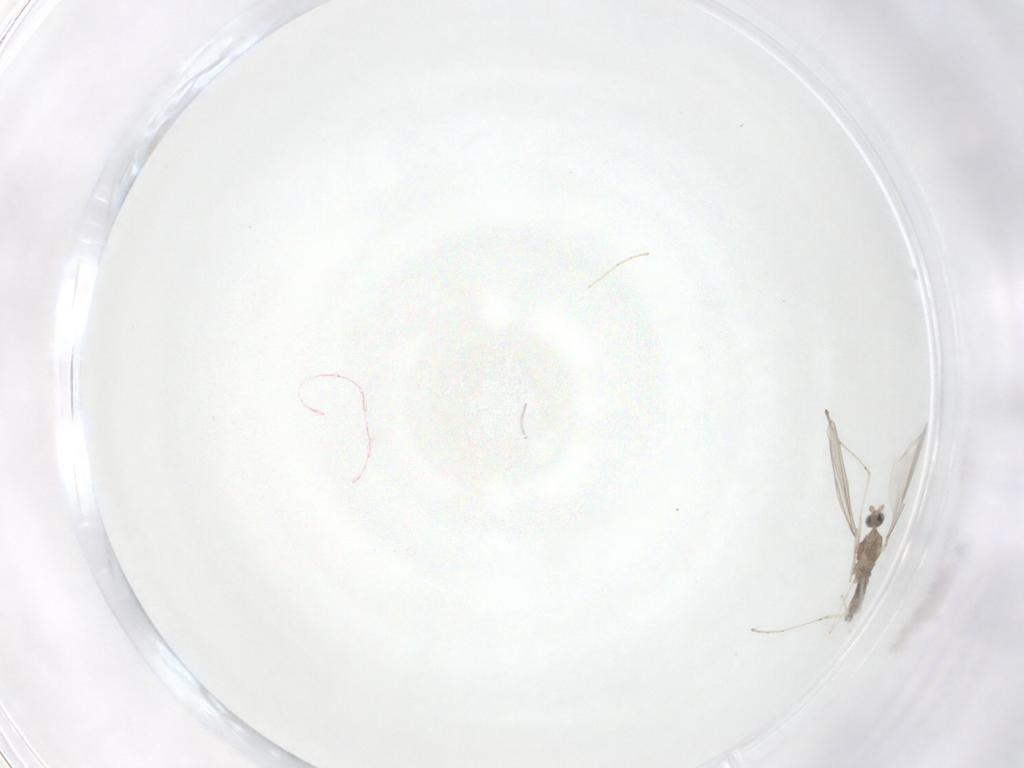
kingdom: Animalia
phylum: Arthropoda
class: Insecta
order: Diptera
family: Cecidomyiidae
